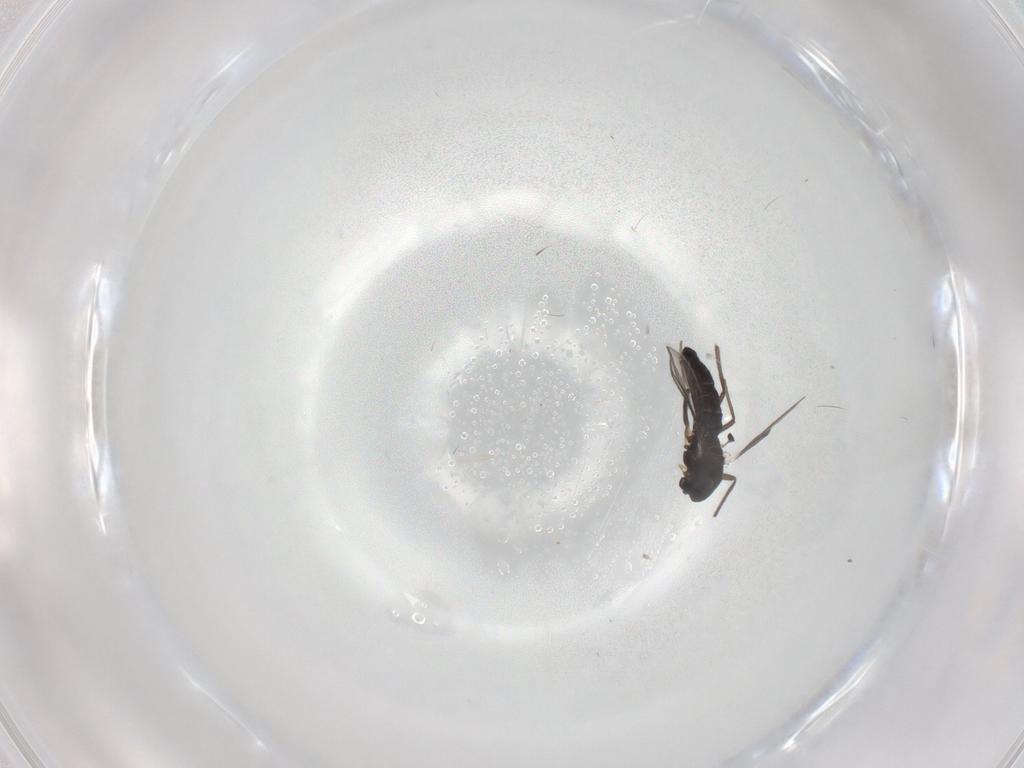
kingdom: Animalia
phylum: Arthropoda
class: Insecta
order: Diptera
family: Chironomidae
